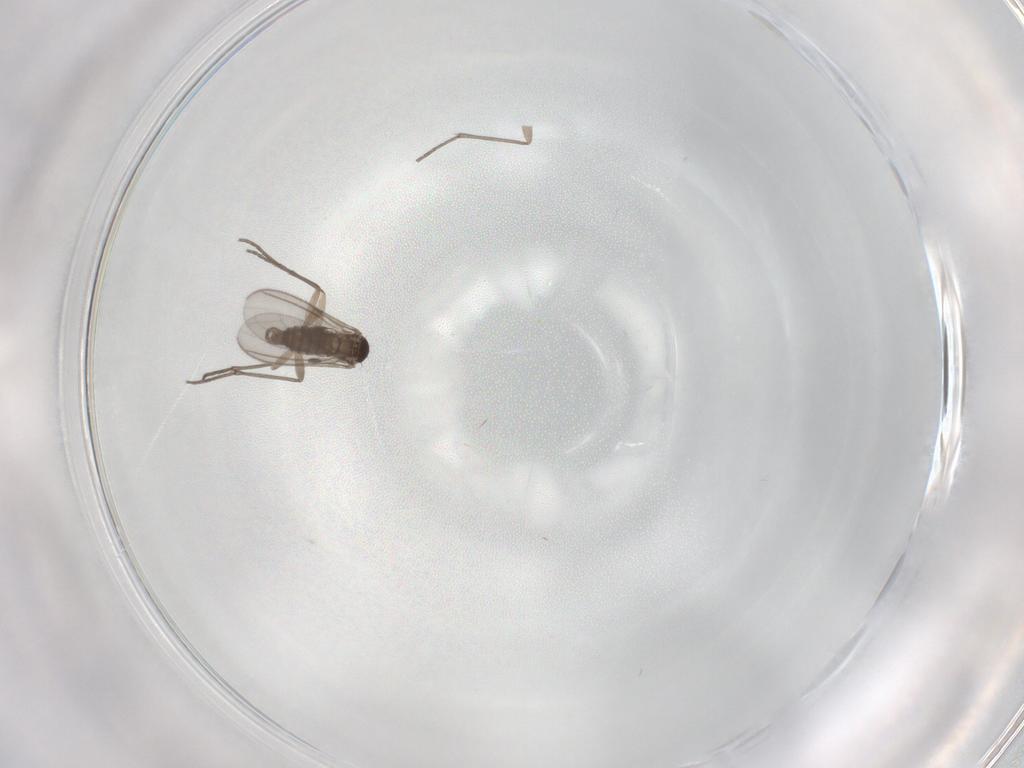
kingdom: Animalia
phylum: Arthropoda
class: Insecta
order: Diptera
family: Sciaridae
